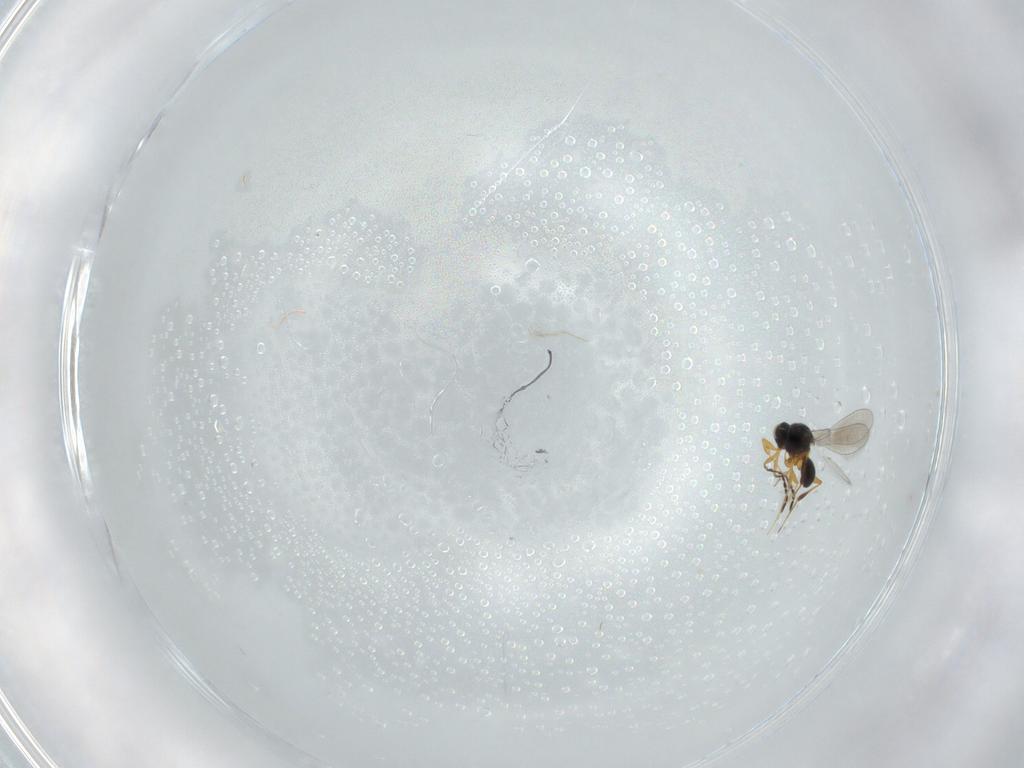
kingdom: Animalia
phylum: Arthropoda
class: Insecta
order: Hymenoptera
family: Platygastridae
